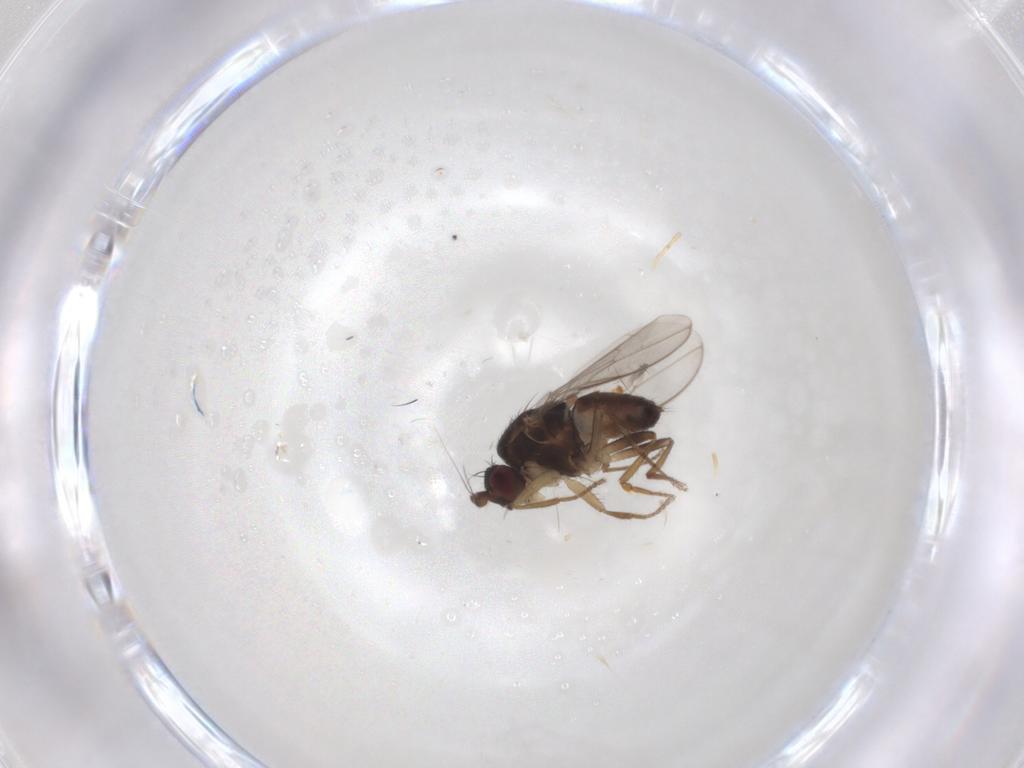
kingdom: Animalia
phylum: Arthropoda
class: Insecta
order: Diptera
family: Sphaeroceridae
